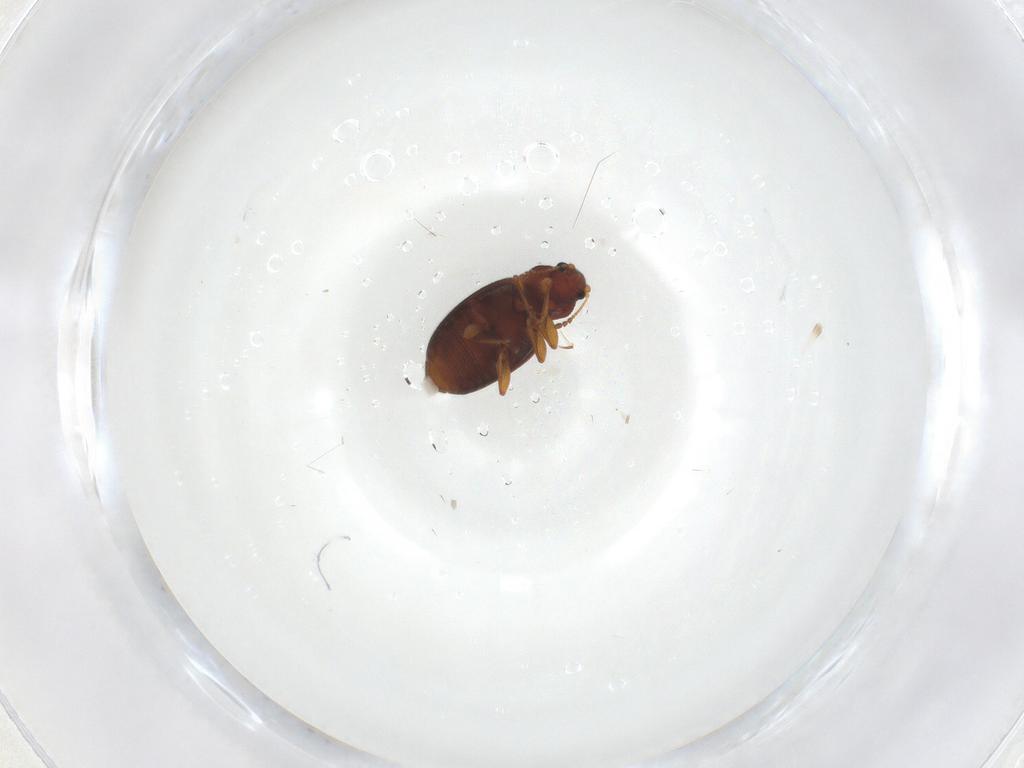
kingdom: Animalia
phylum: Arthropoda
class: Insecta
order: Coleoptera
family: Latridiidae
